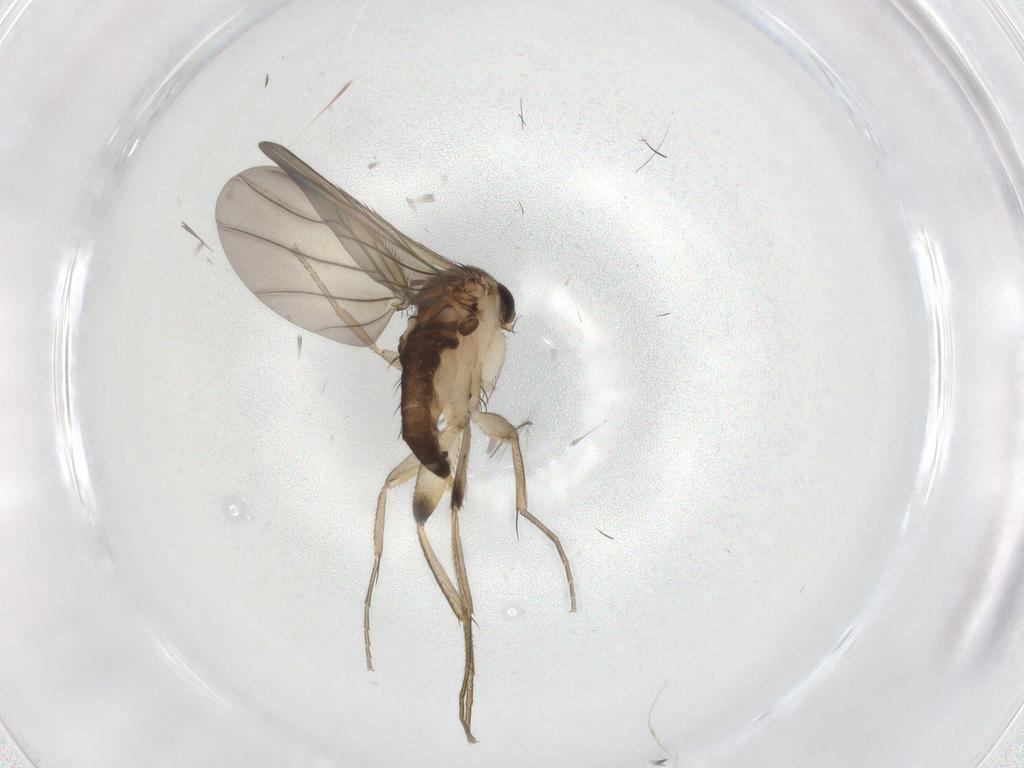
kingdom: Animalia
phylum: Arthropoda
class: Insecta
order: Diptera
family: Phoridae
